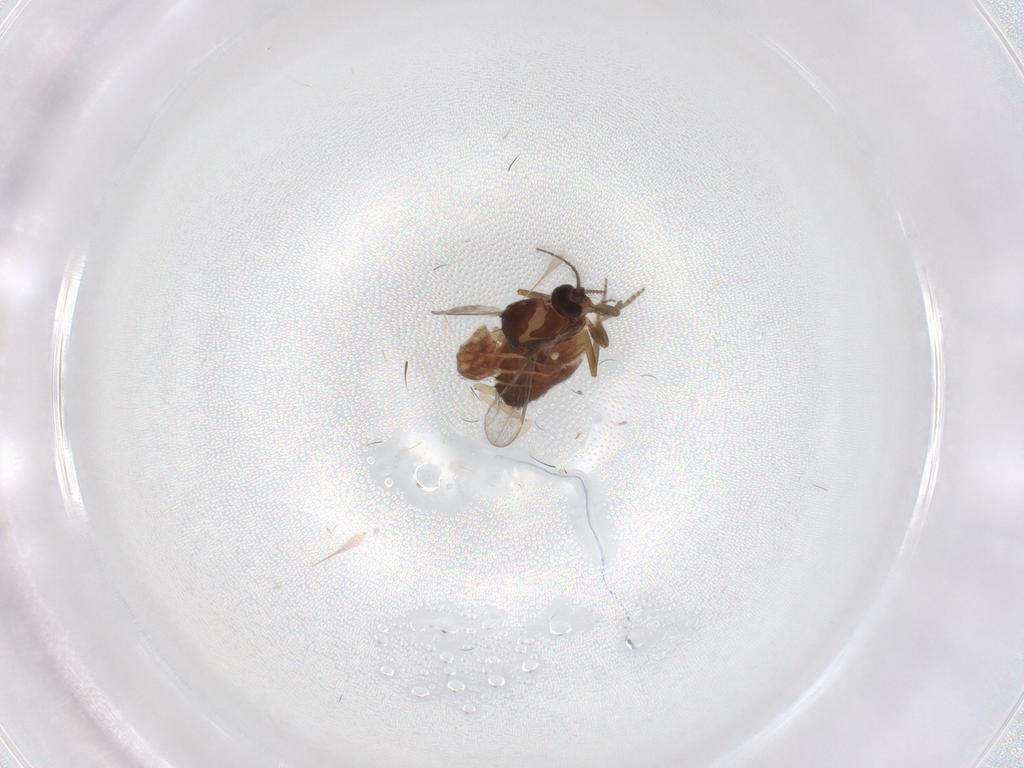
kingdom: Animalia
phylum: Arthropoda
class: Insecta
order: Diptera
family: Ceratopogonidae
